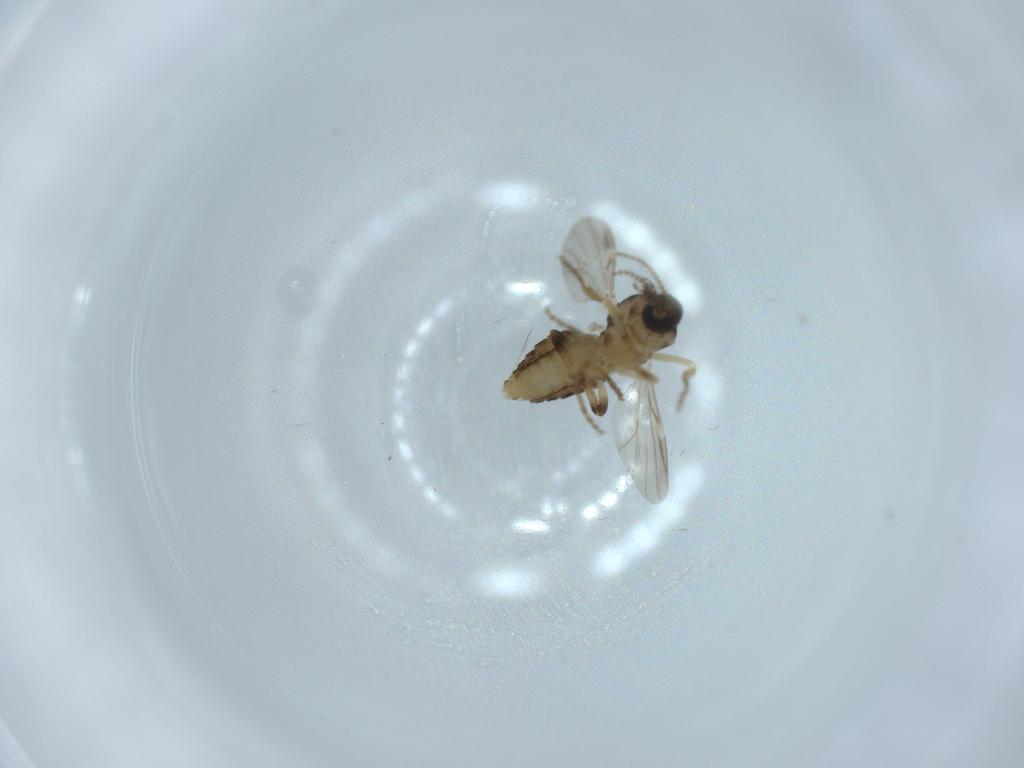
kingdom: Animalia
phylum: Arthropoda
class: Insecta
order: Diptera
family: Ceratopogonidae
